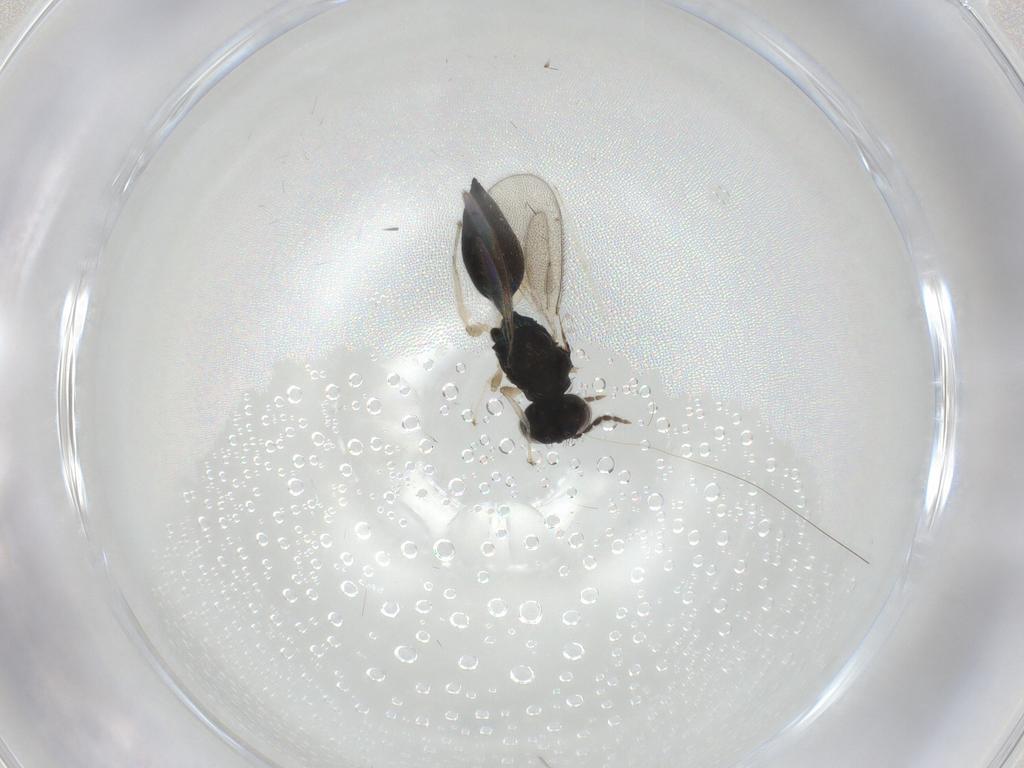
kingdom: Animalia
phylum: Arthropoda
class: Insecta
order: Hymenoptera
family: Eulophidae
